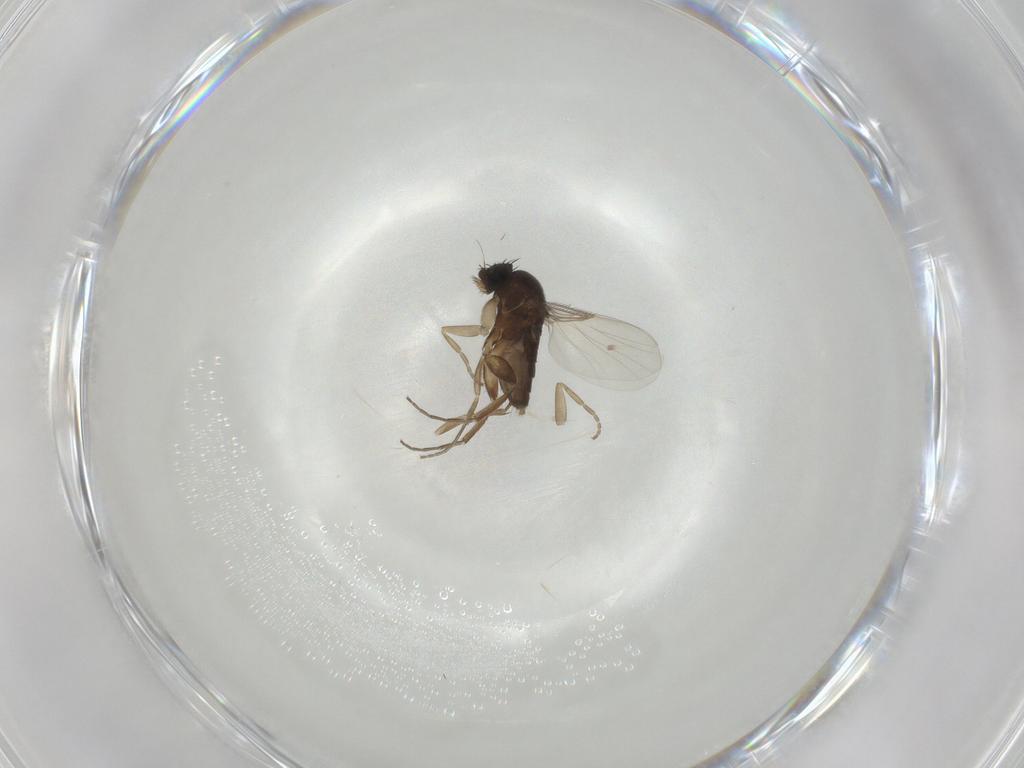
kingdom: Animalia
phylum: Arthropoda
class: Insecta
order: Diptera
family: Phoridae
